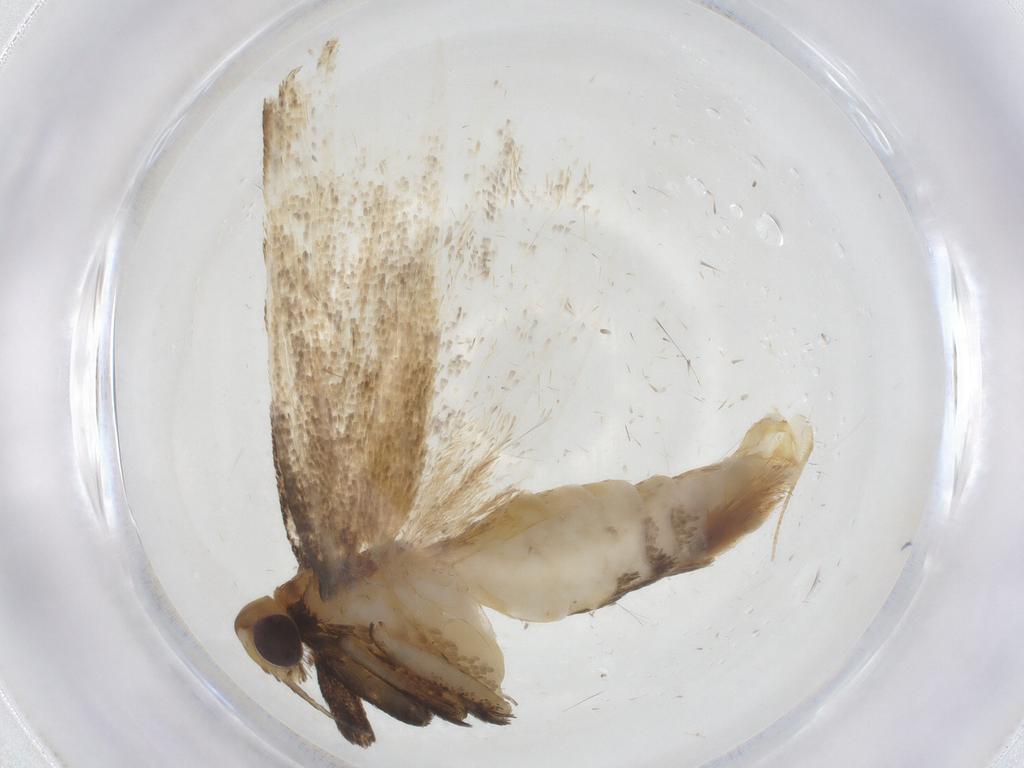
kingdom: Animalia
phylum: Arthropoda
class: Insecta
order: Lepidoptera
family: Lecithoceridae
